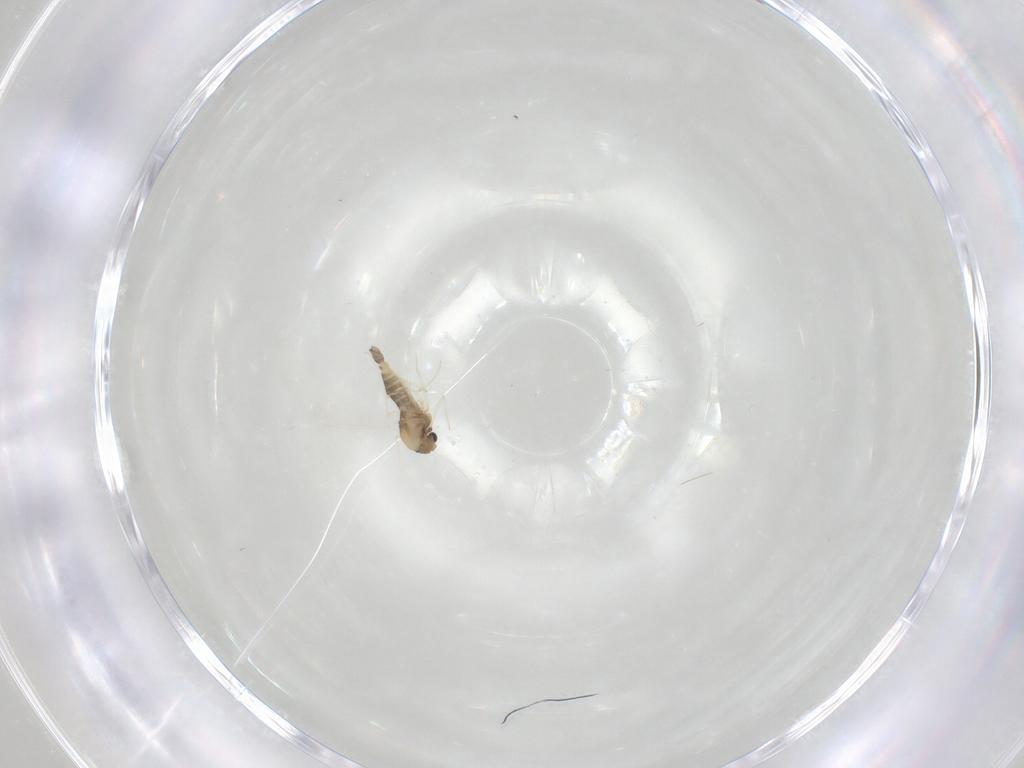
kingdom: Animalia
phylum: Arthropoda
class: Insecta
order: Diptera
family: Chironomidae
